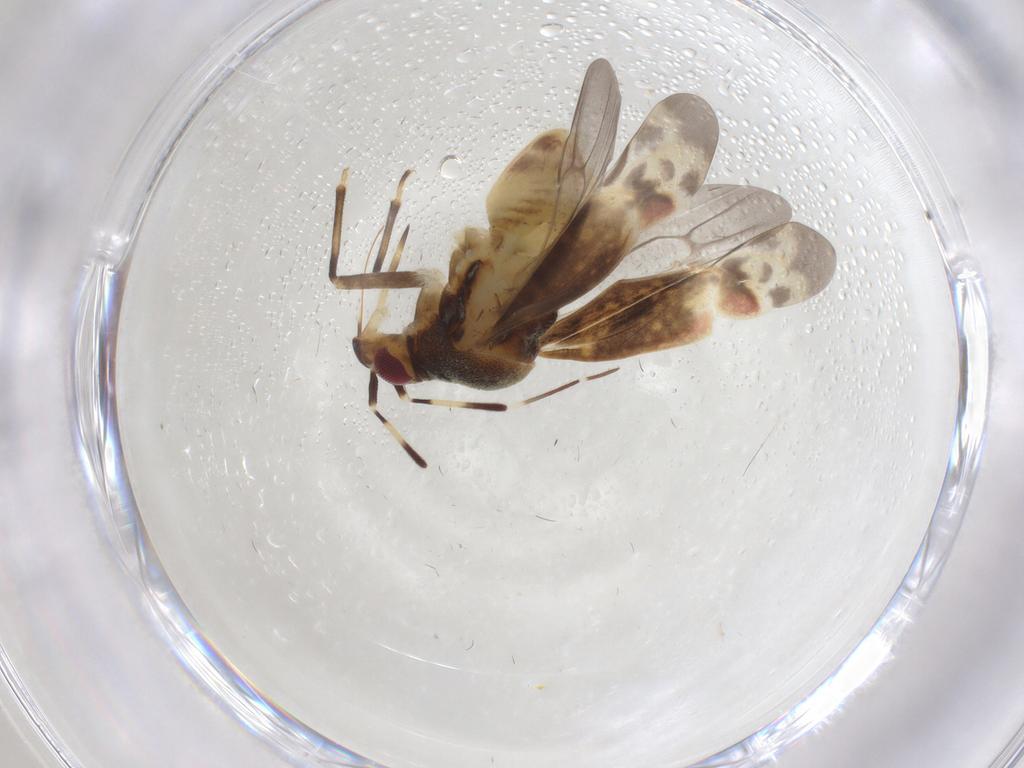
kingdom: Animalia
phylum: Arthropoda
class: Insecta
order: Hemiptera
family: Miridae
